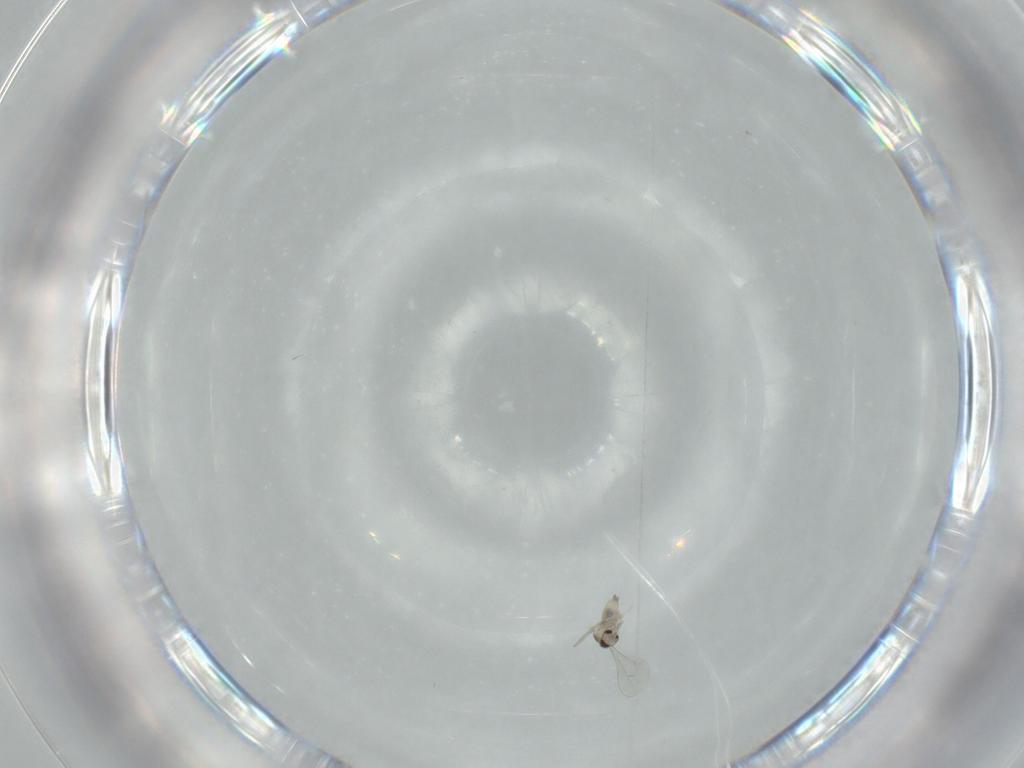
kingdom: Animalia
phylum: Arthropoda
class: Insecta
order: Diptera
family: Cecidomyiidae
